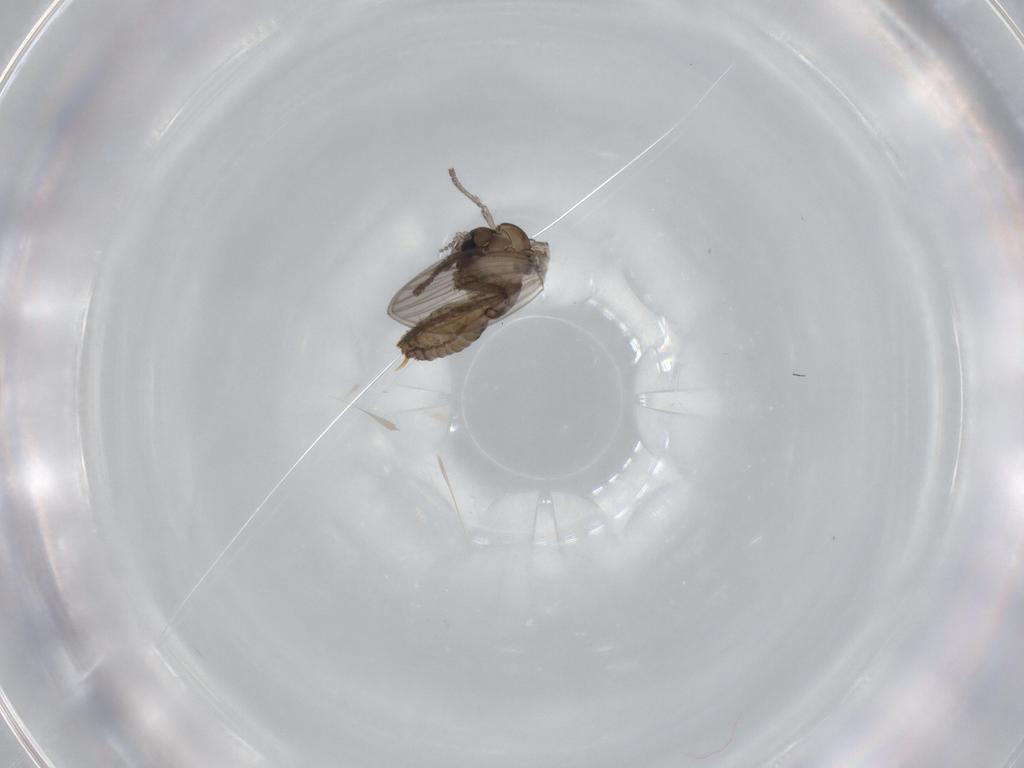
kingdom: Animalia
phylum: Arthropoda
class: Insecta
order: Diptera
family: Psychodidae
